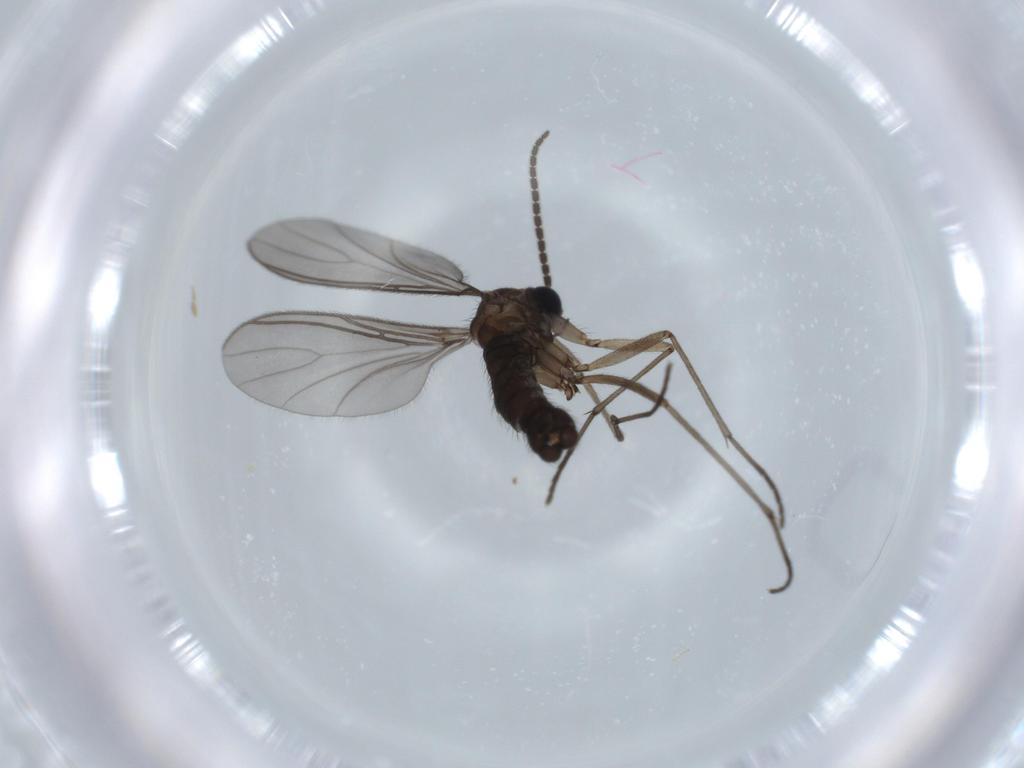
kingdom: Animalia
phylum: Arthropoda
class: Insecta
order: Diptera
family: Sciaridae
